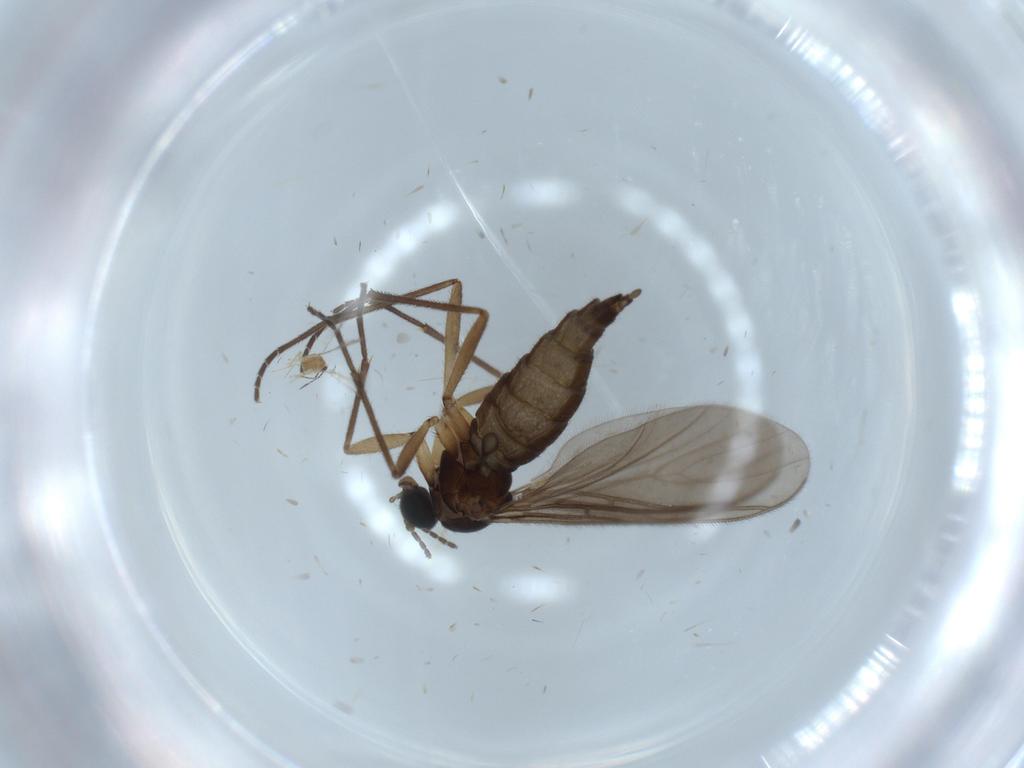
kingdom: Animalia
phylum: Arthropoda
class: Insecta
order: Diptera
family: Sciaridae
